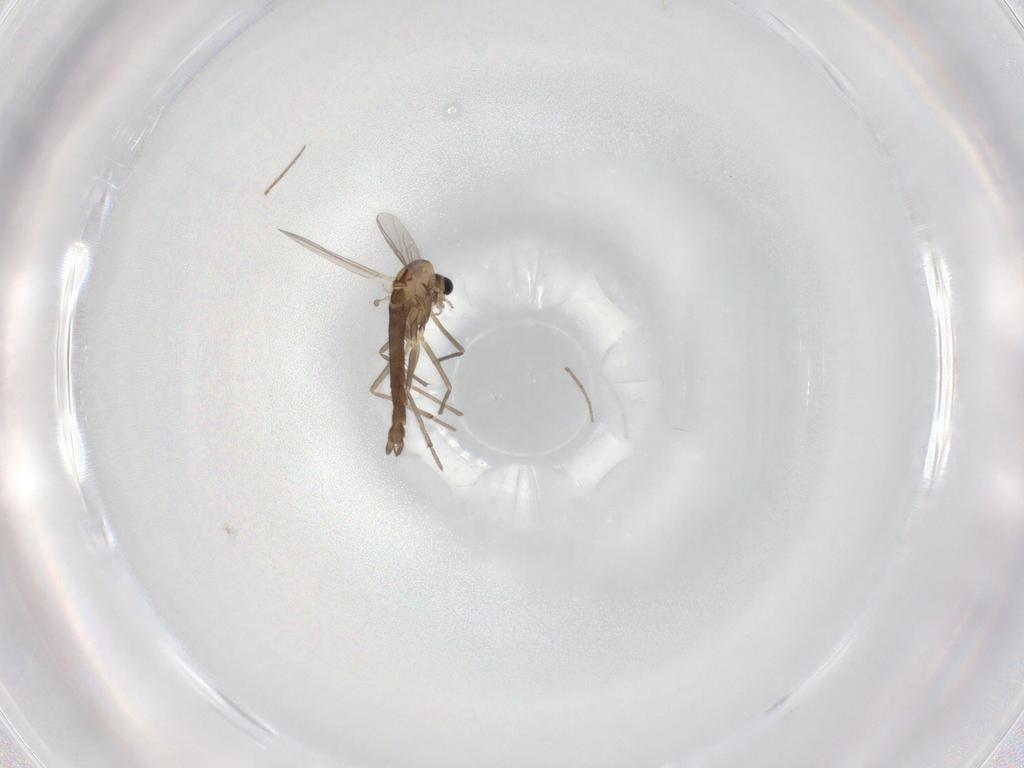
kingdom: Animalia
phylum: Arthropoda
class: Insecta
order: Diptera
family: Chironomidae
